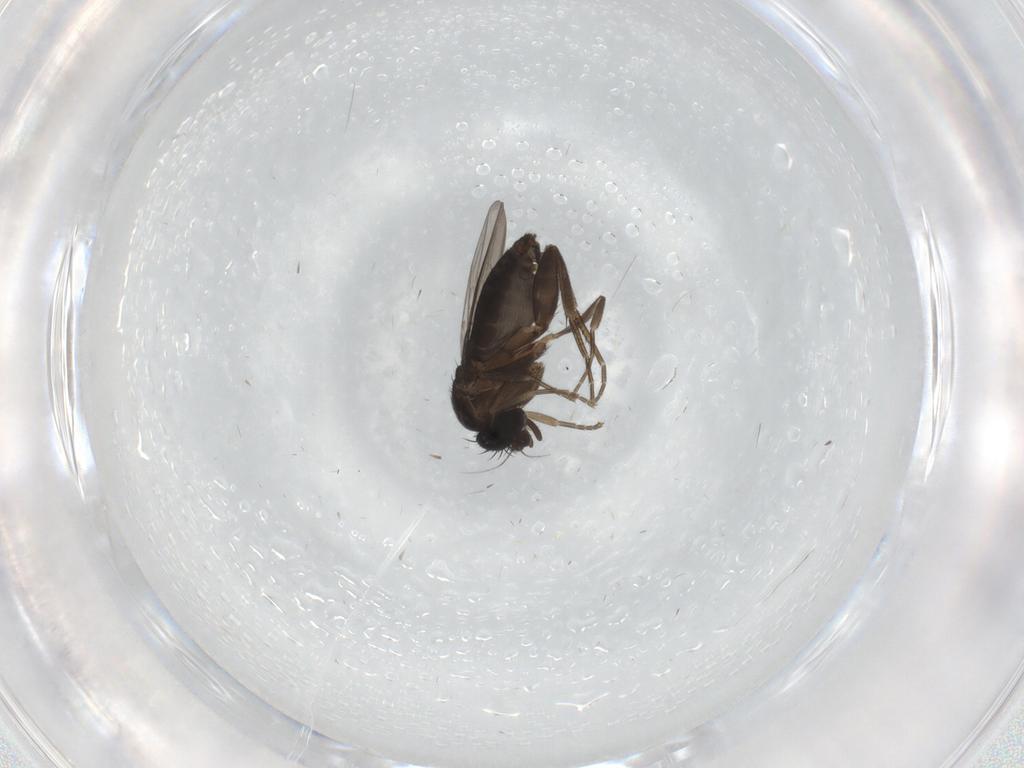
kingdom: Animalia
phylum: Arthropoda
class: Insecta
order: Diptera
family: Phoridae
